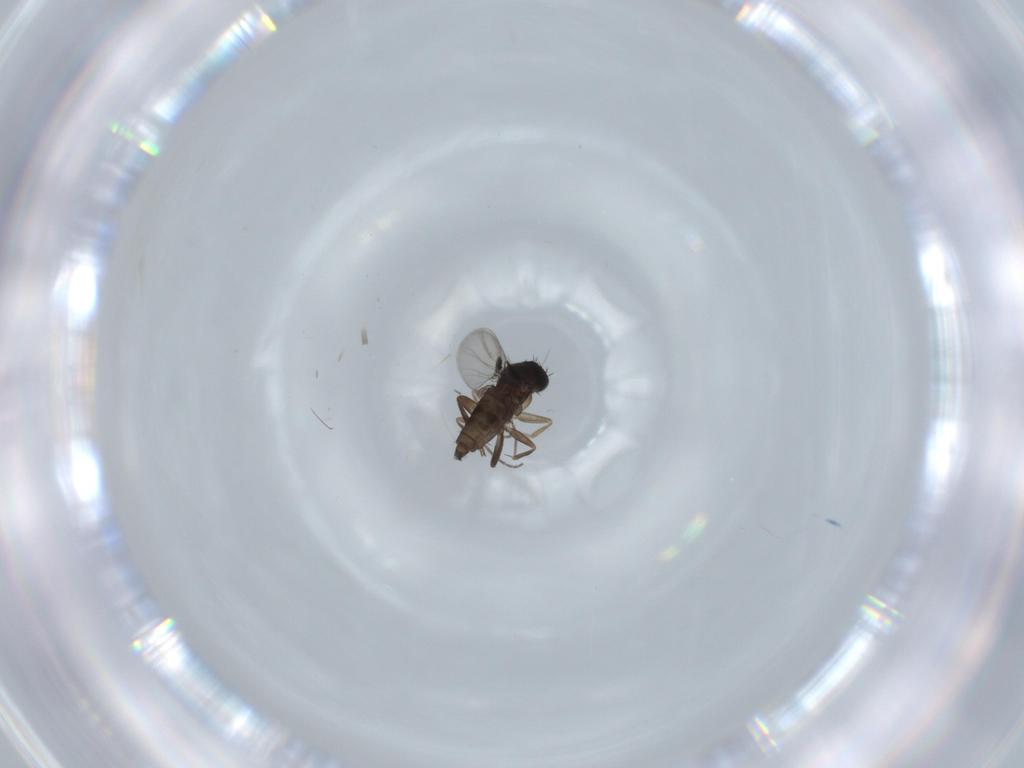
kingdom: Animalia
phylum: Arthropoda
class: Insecta
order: Diptera
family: Phoridae
